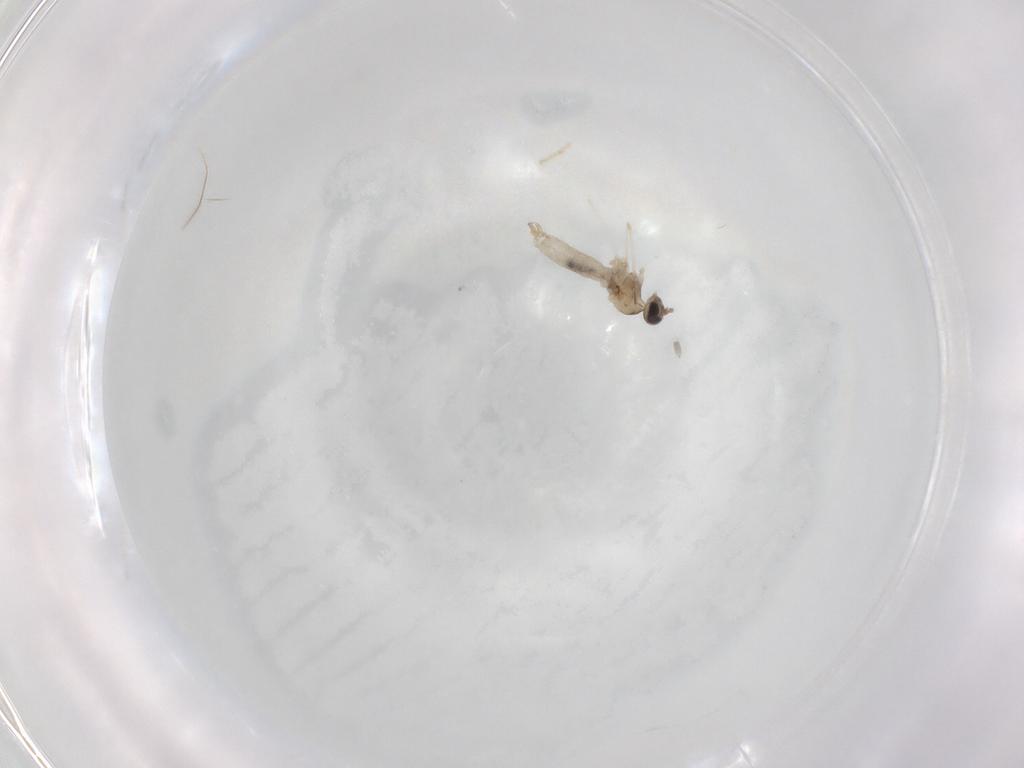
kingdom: Animalia
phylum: Arthropoda
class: Insecta
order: Diptera
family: Cecidomyiidae
